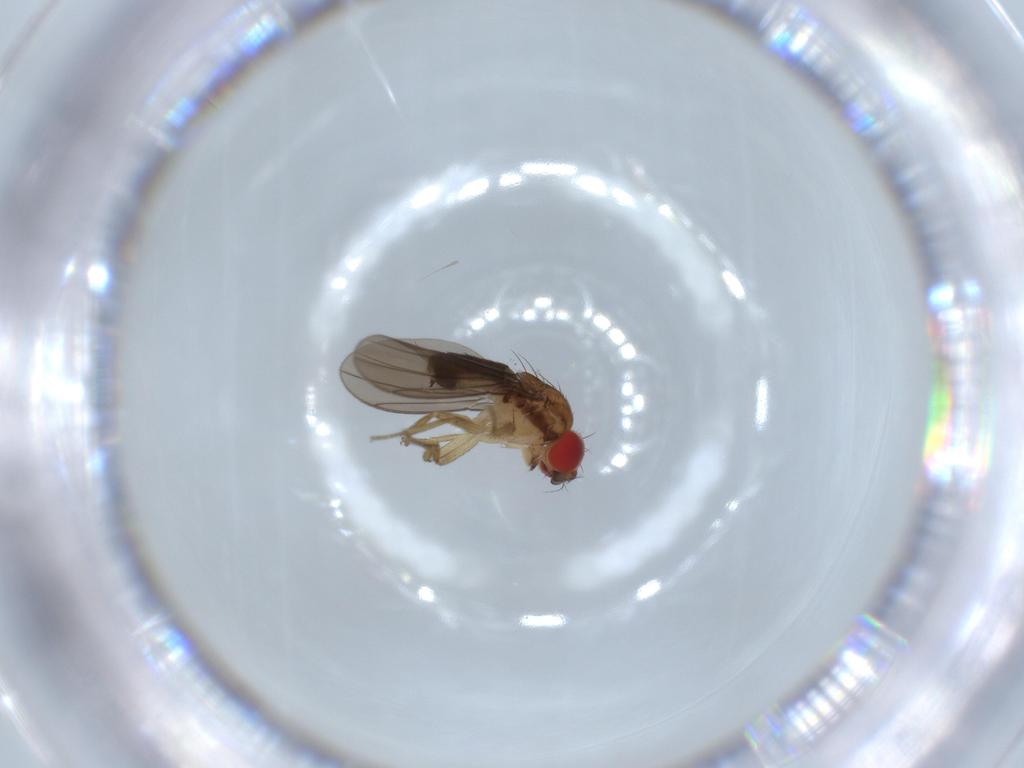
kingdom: Animalia
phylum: Arthropoda
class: Insecta
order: Diptera
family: Drosophilidae
